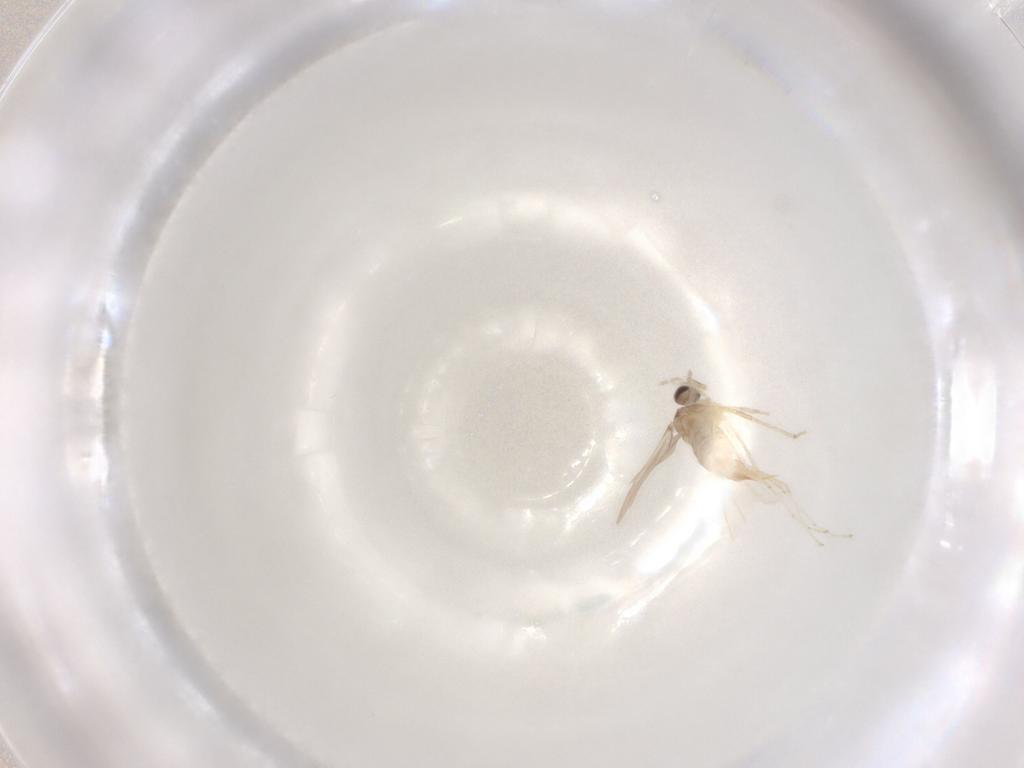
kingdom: Animalia
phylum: Arthropoda
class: Insecta
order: Diptera
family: Cecidomyiidae
